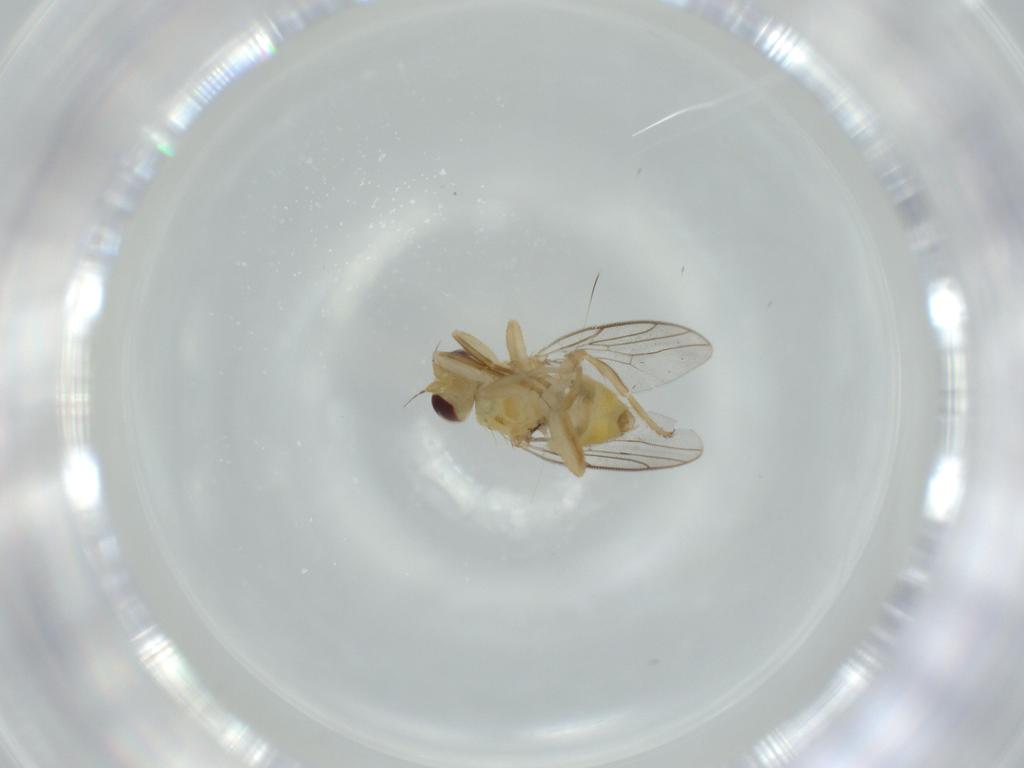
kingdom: Animalia
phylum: Arthropoda
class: Insecta
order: Diptera
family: Chloropidae
